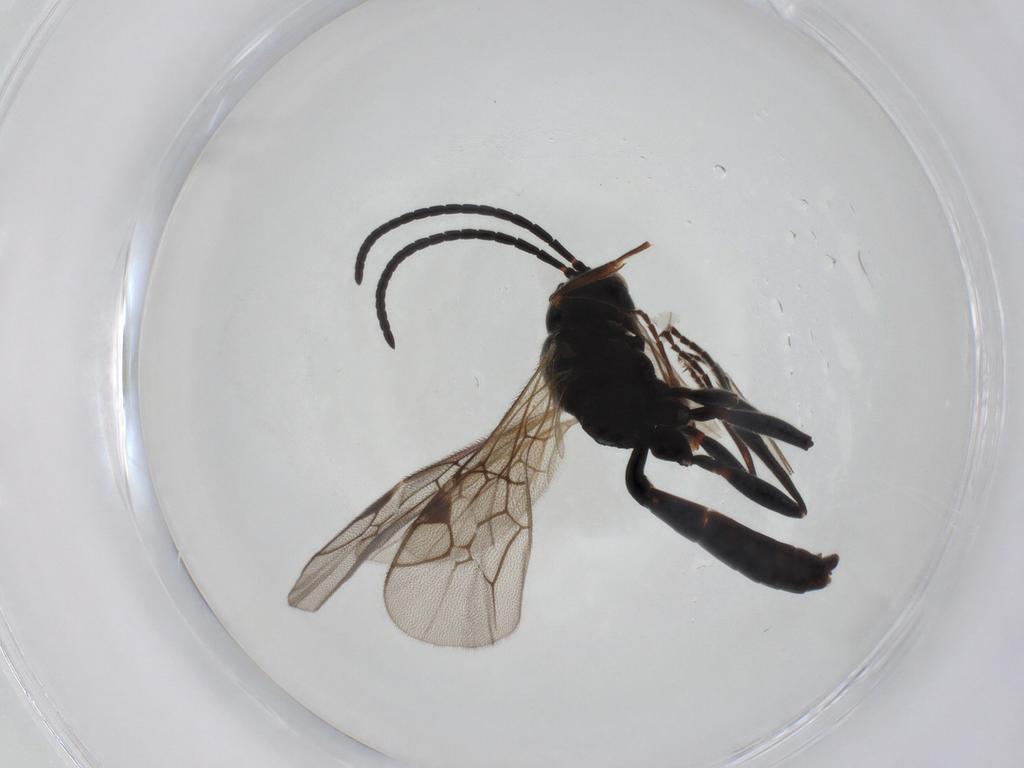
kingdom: Animalia
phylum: Arthropoda
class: Insecta
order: Hymenoptera
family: Ichneumonidae
